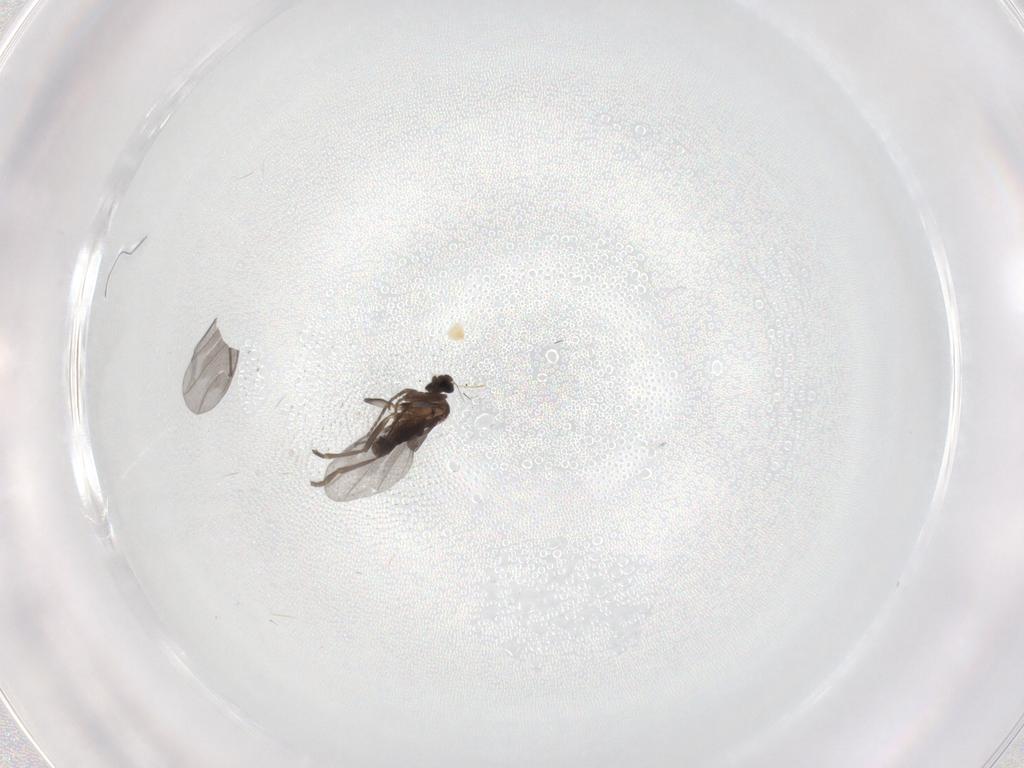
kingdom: Animalia
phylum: Arthropoda
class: Insecta
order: Diptera
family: Phoridae
